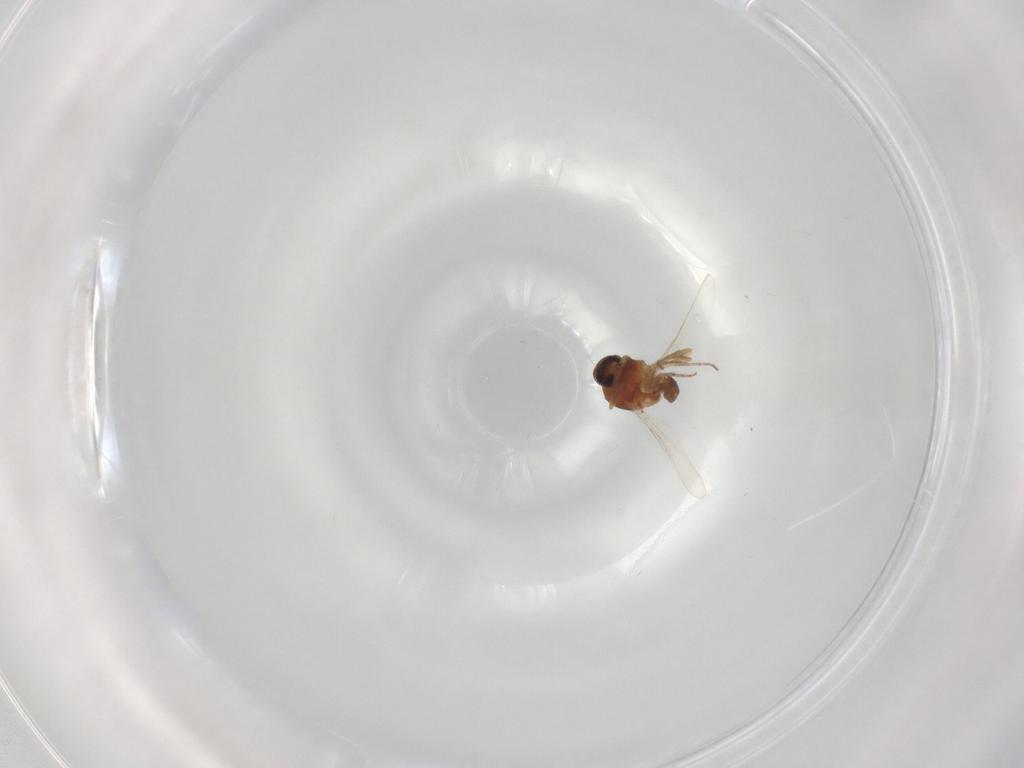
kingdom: Animalia
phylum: Arthropoda
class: Insecta
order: Diptera
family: Ceratopogonidae
